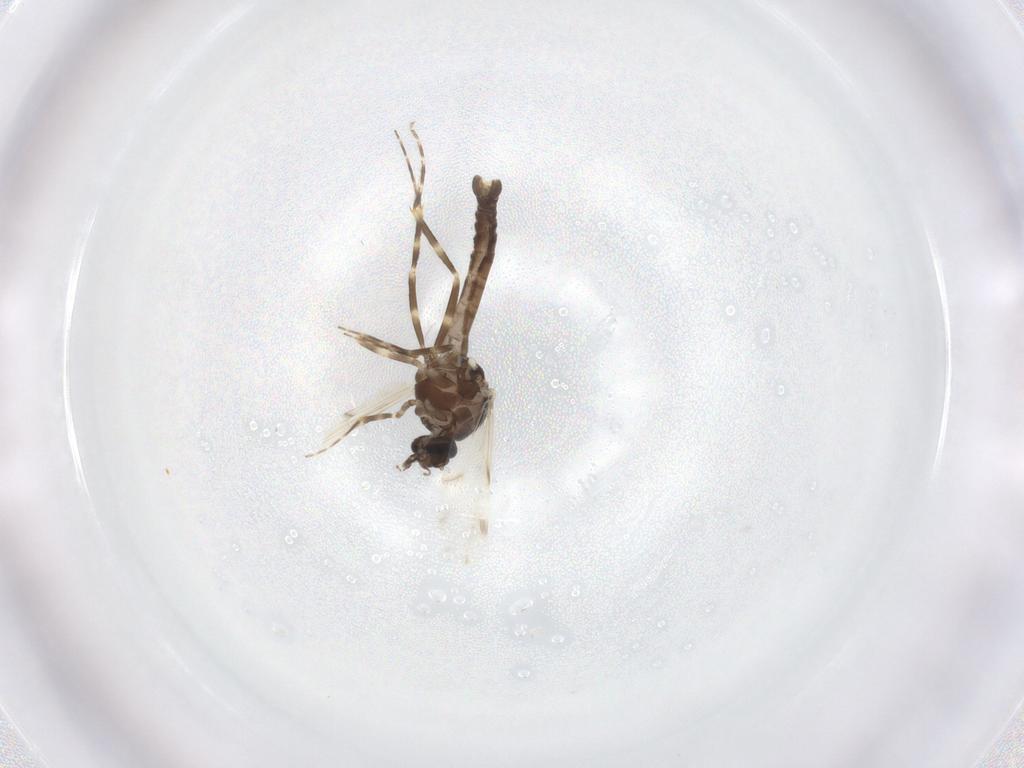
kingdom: Animalia
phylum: Arthropoda
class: Insecta
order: Diptera
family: Ceratopogonidae
